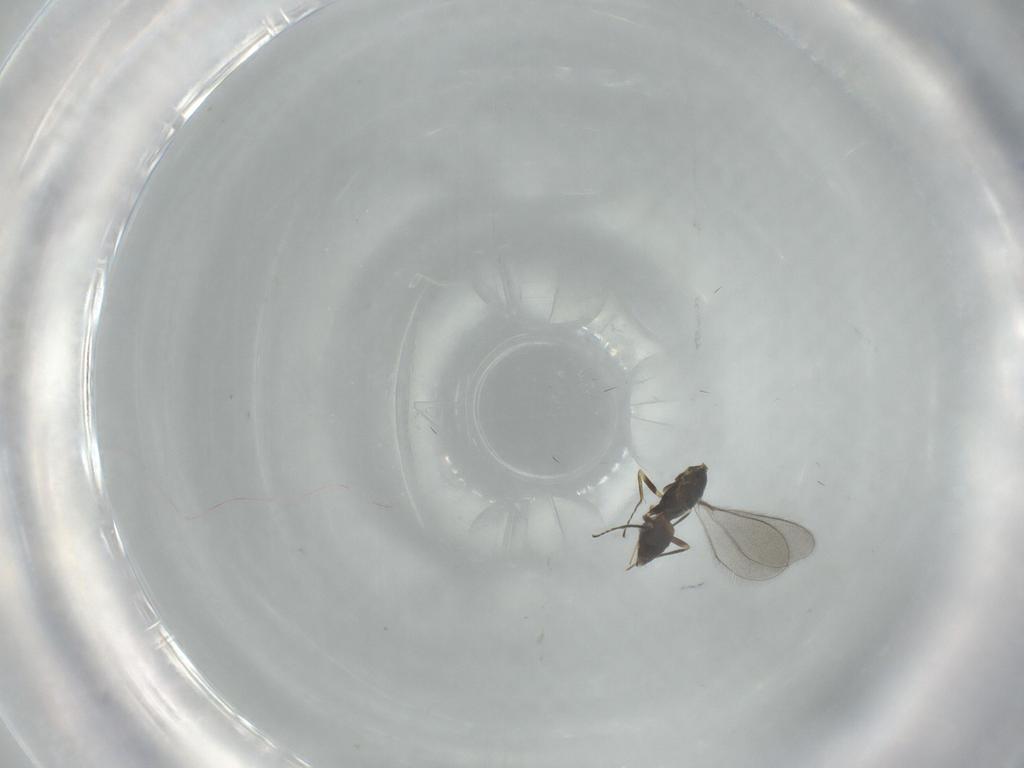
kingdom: Animalia
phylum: Arthropoda
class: Insecta
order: Hymenoptera
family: Mymaridae
